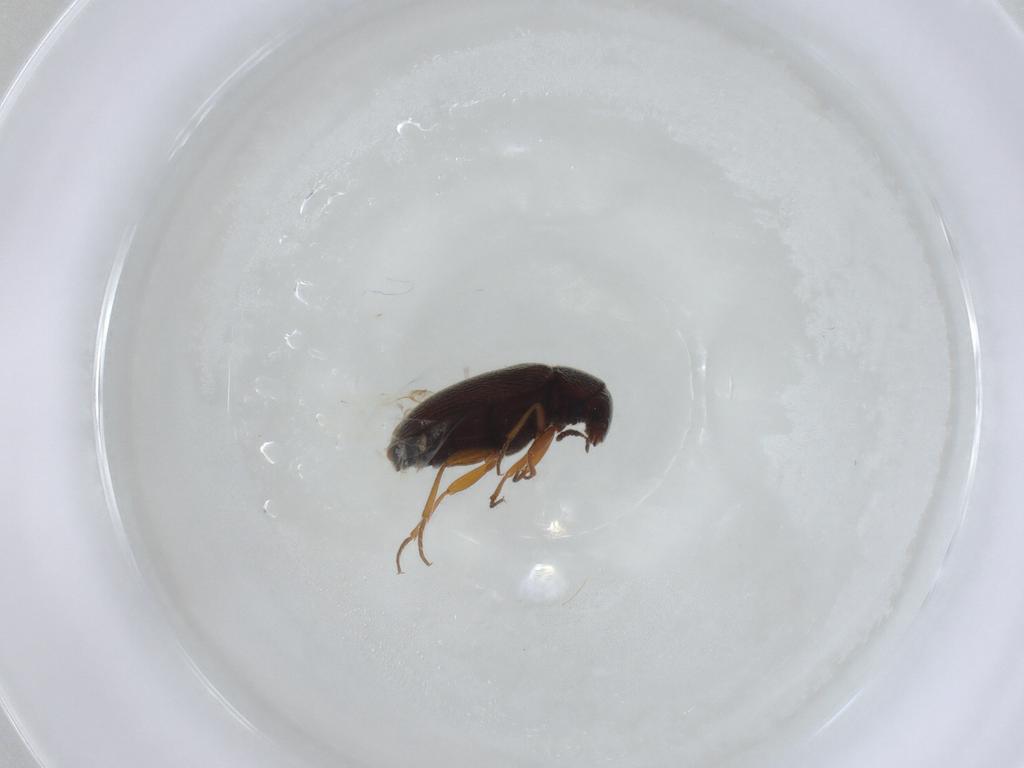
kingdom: Animalia
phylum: Arthropoda
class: Insecta
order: Coleoptera
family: Rhadalidae
